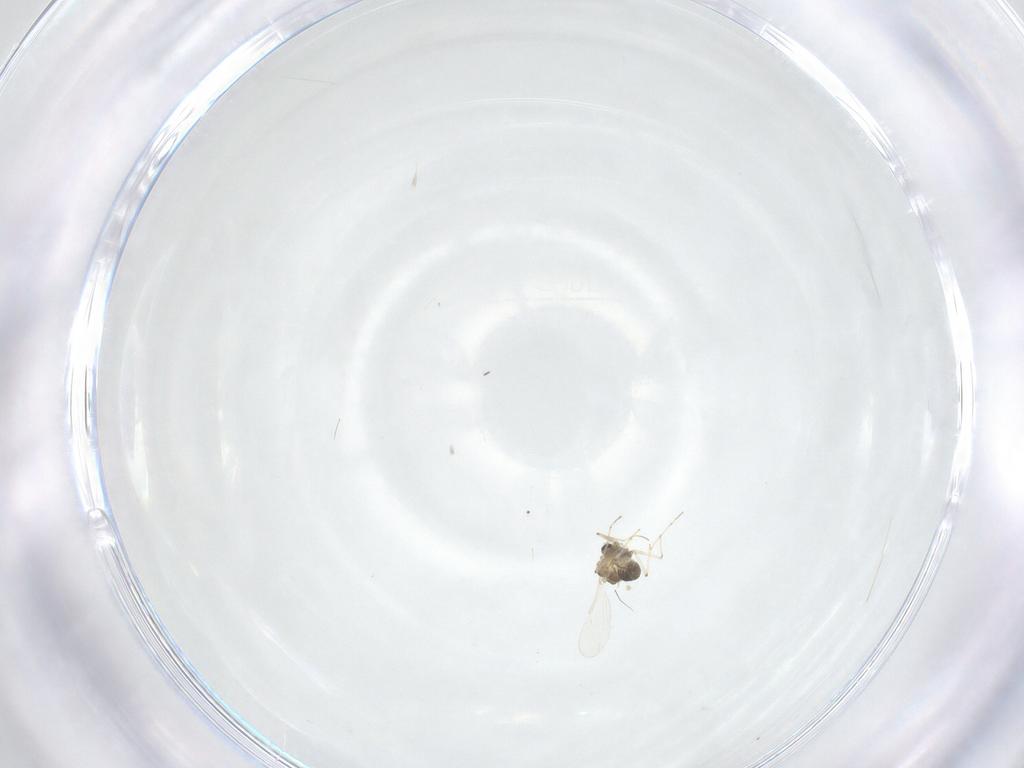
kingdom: Animalia
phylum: Arthropoda
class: Insecta
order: Diptera
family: Chironomidae
